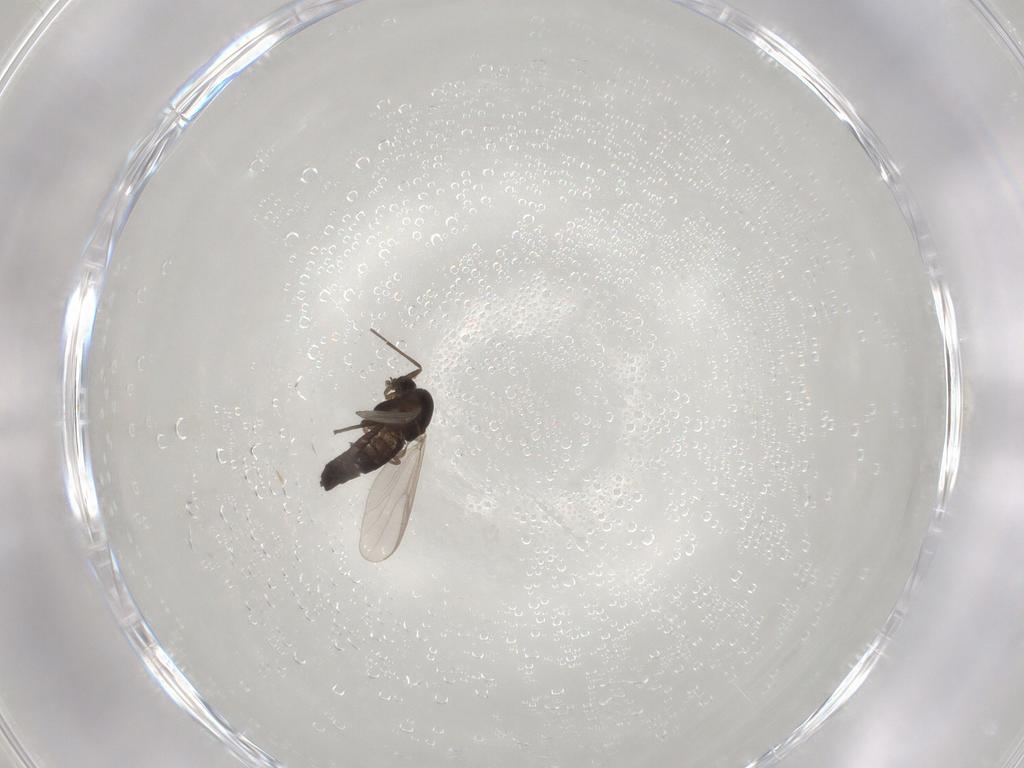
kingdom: Animalia
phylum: Arthropoda
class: Insecta
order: Diptera
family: Chironomidae
